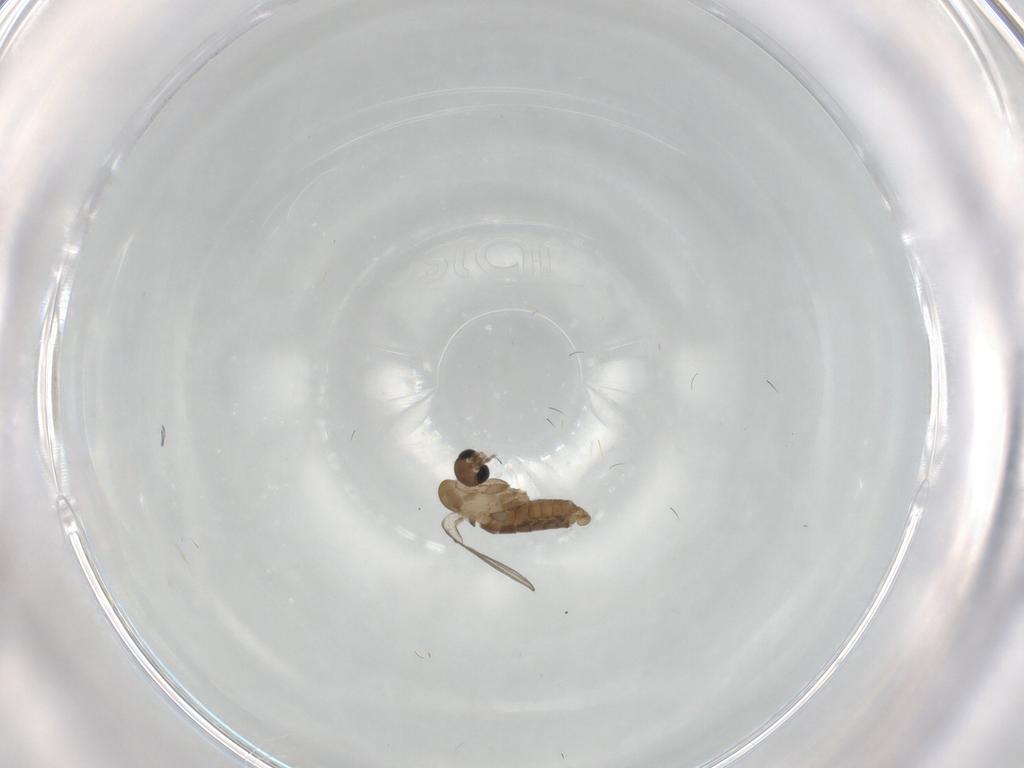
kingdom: Animalia
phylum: Arthropoda
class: Insecta
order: Diptera
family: Psychodidae
